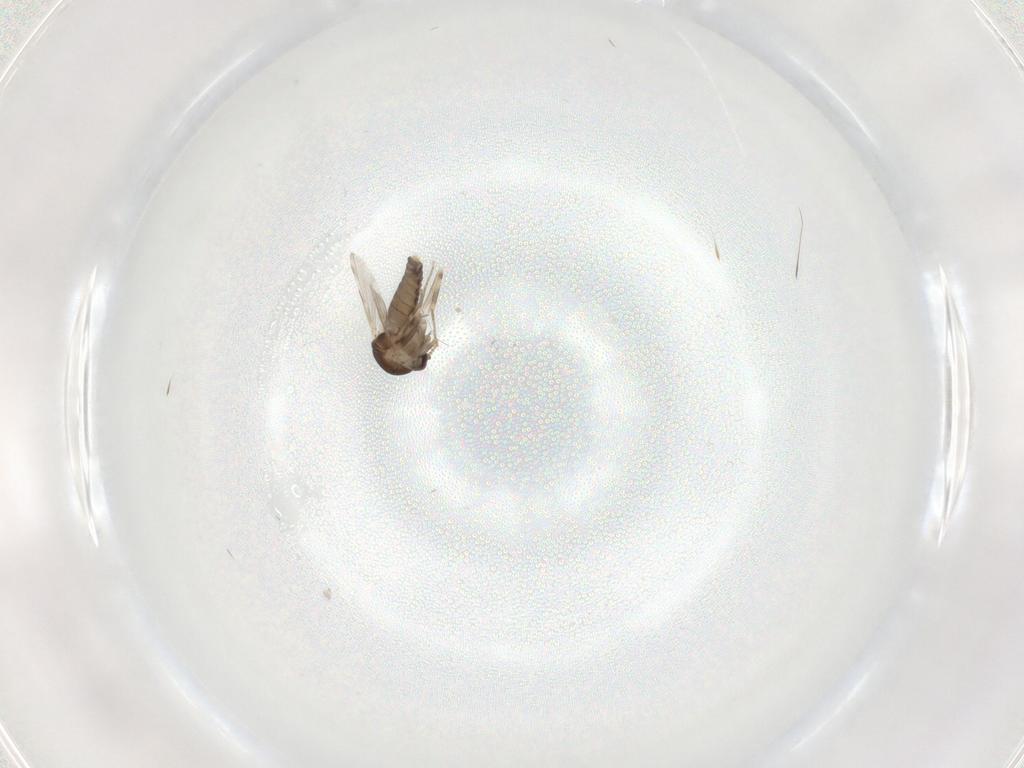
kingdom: Animalia
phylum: Arthropoda
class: Insecta
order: Diptera
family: Ceratopogonidae
